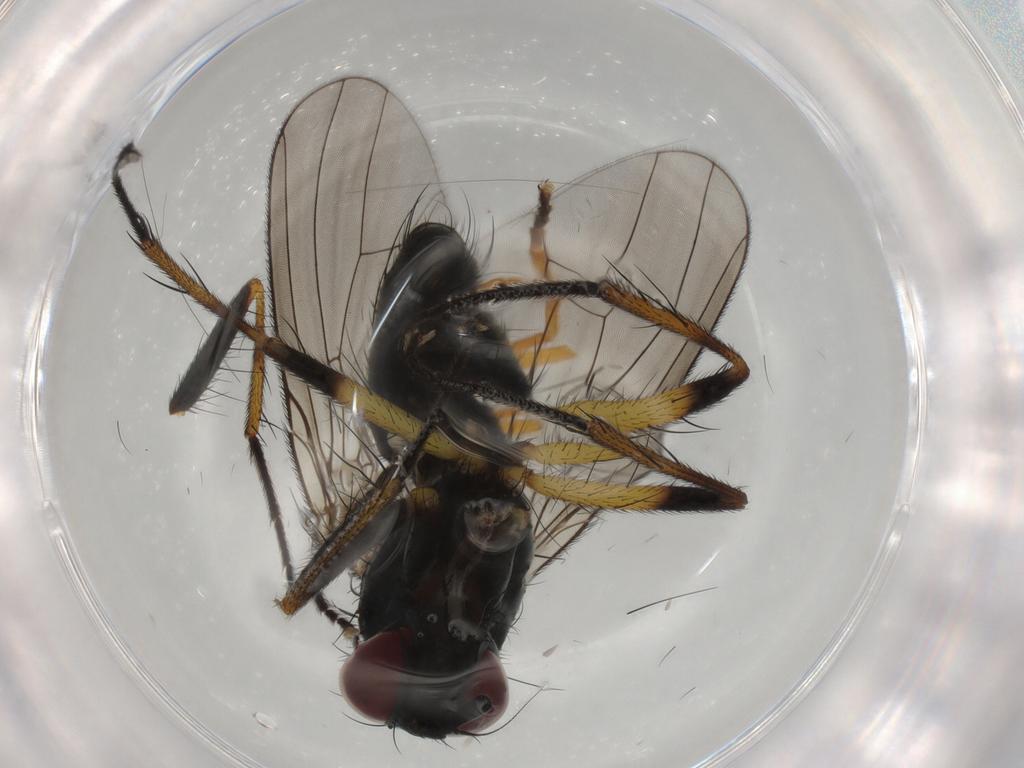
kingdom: Animalia
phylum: Arthropoda
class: Insecta
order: Diptera
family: Muscidae
